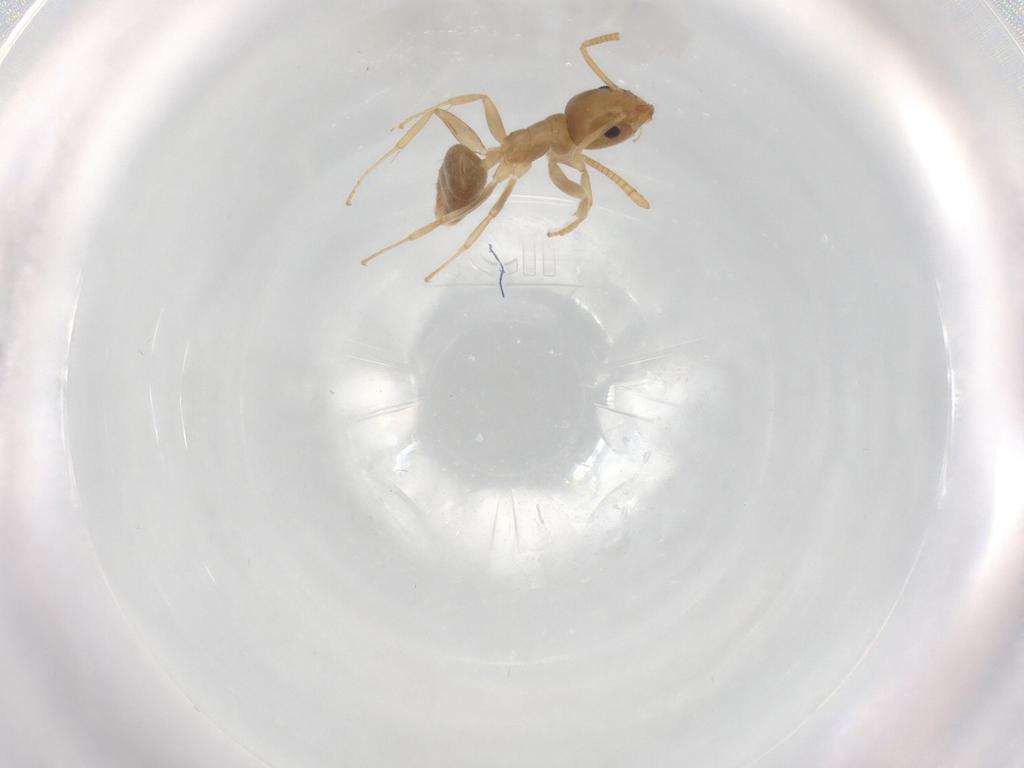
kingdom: Animalia
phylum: Arthropoda
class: Insecta
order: Hymenoptera
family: Formicidae
